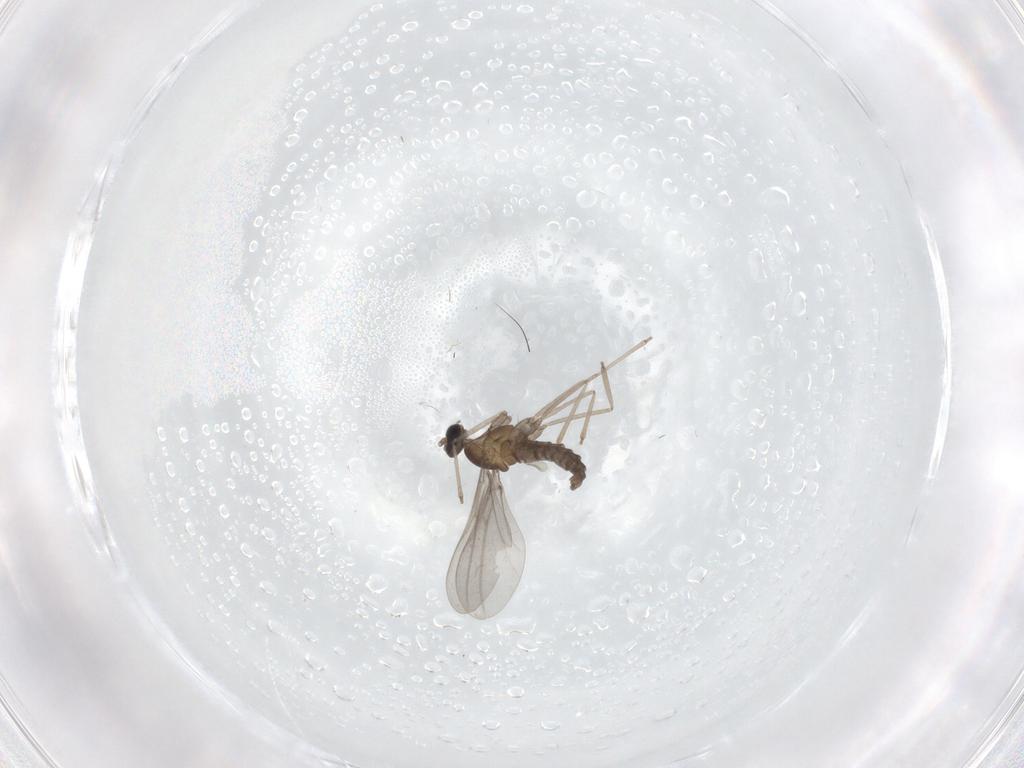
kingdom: Animalia
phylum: Arthropoda
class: Insecta
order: Diptera
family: Cecidomyiidae
